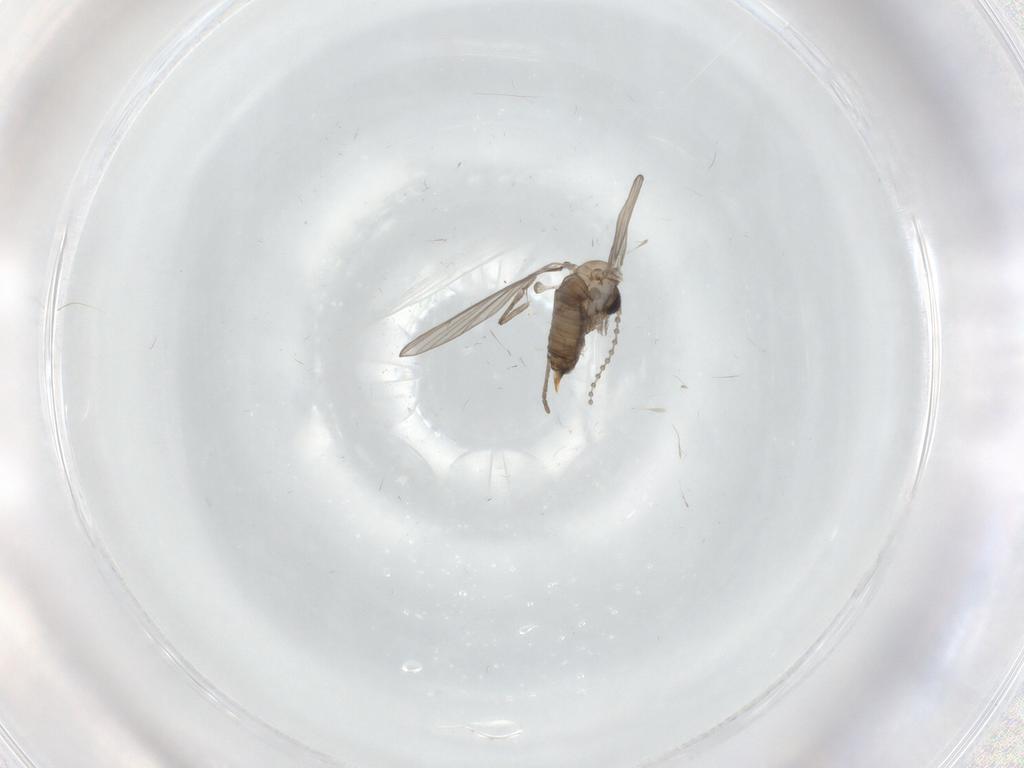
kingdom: Animalia
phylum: Arthropoda
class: Insecta
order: Diptera
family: Psychodidae
